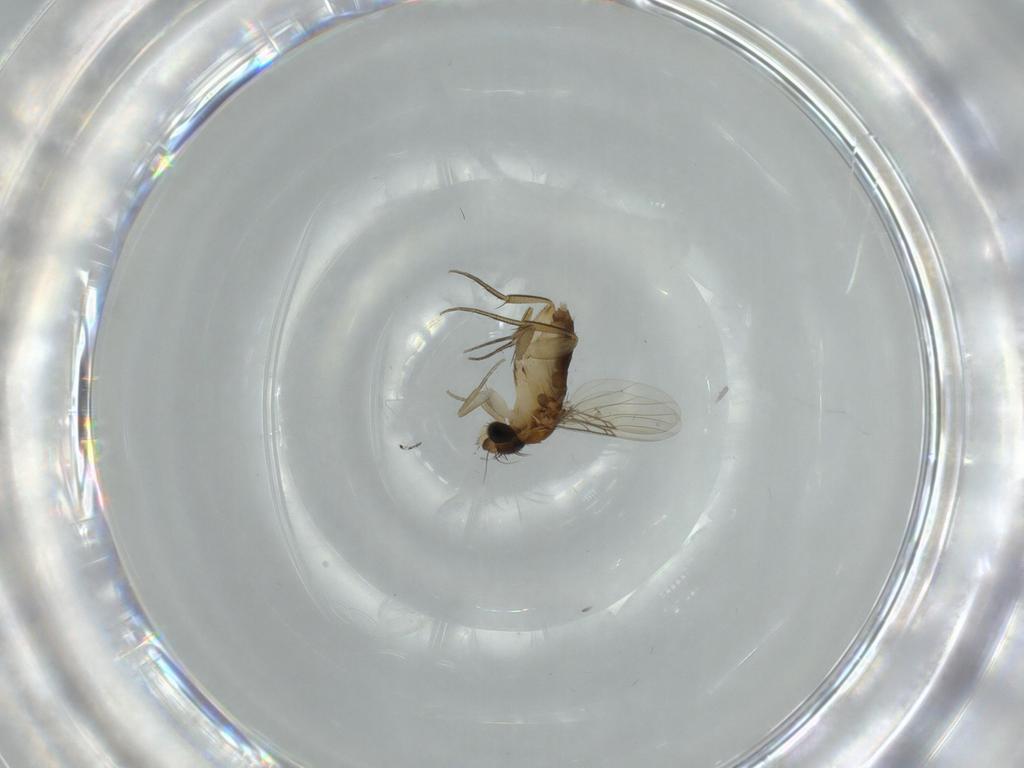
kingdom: Animalia
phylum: Arthropoda
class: Insecta
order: Diptera
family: Phoridae
